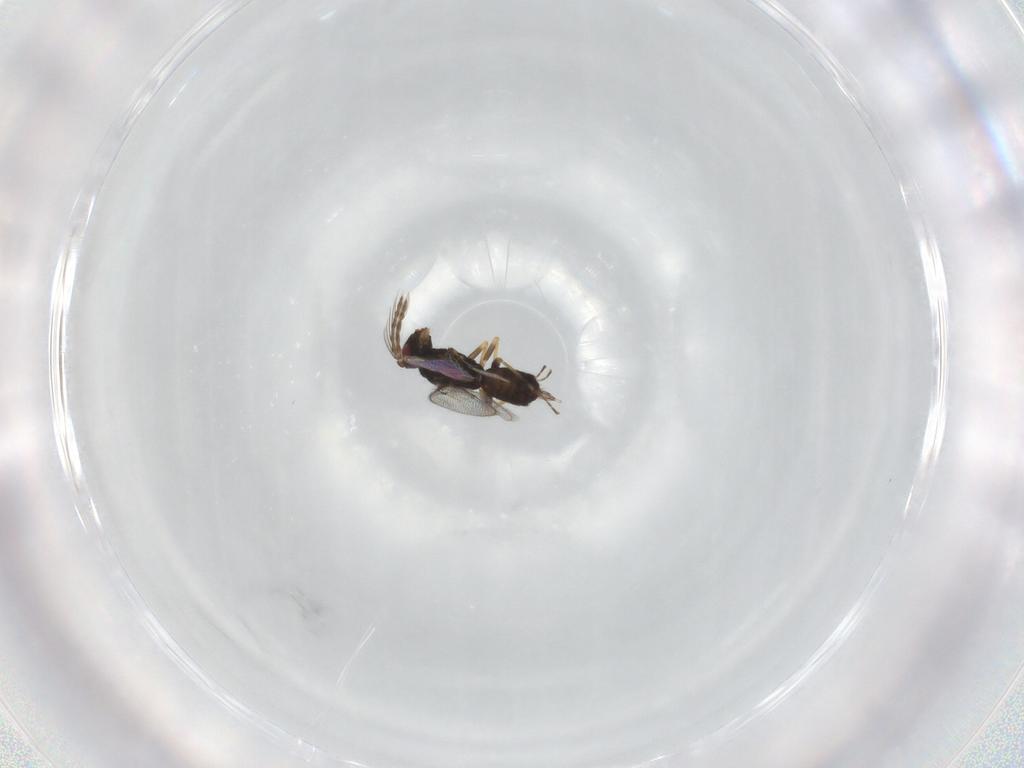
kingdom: Animalia
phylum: Arthropoda
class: Insecta
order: Hymenoptera
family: Eulophidae
